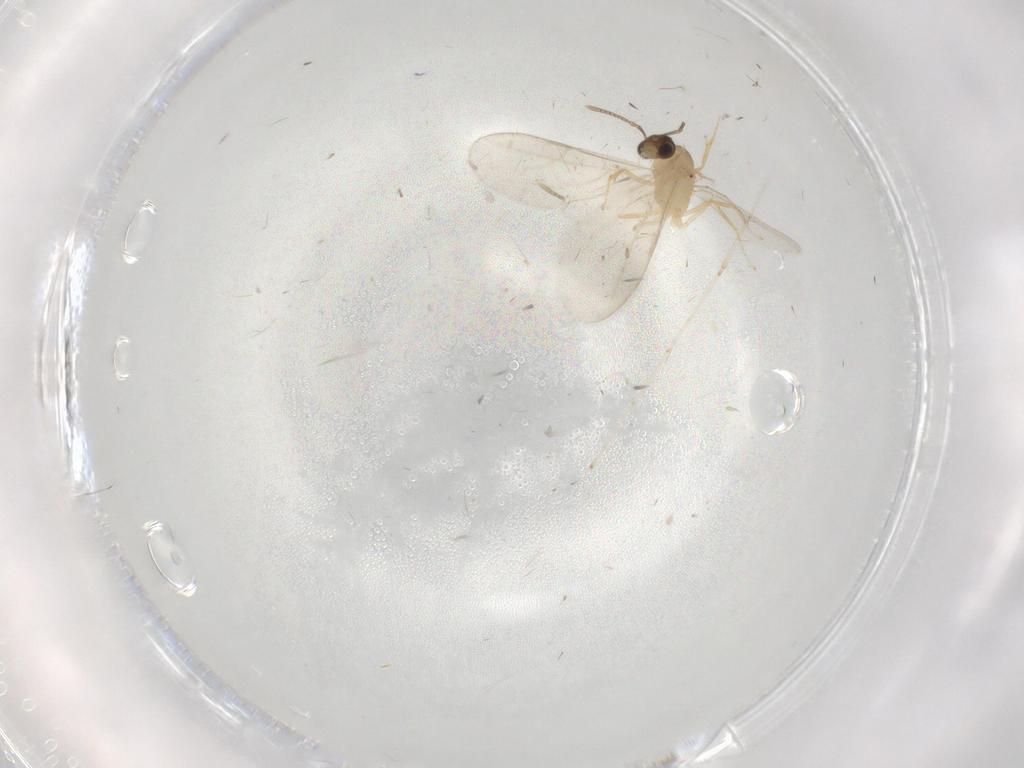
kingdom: Animalia
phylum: Arthropoda
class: Insecta
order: Hymenoptera
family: Formicidae
